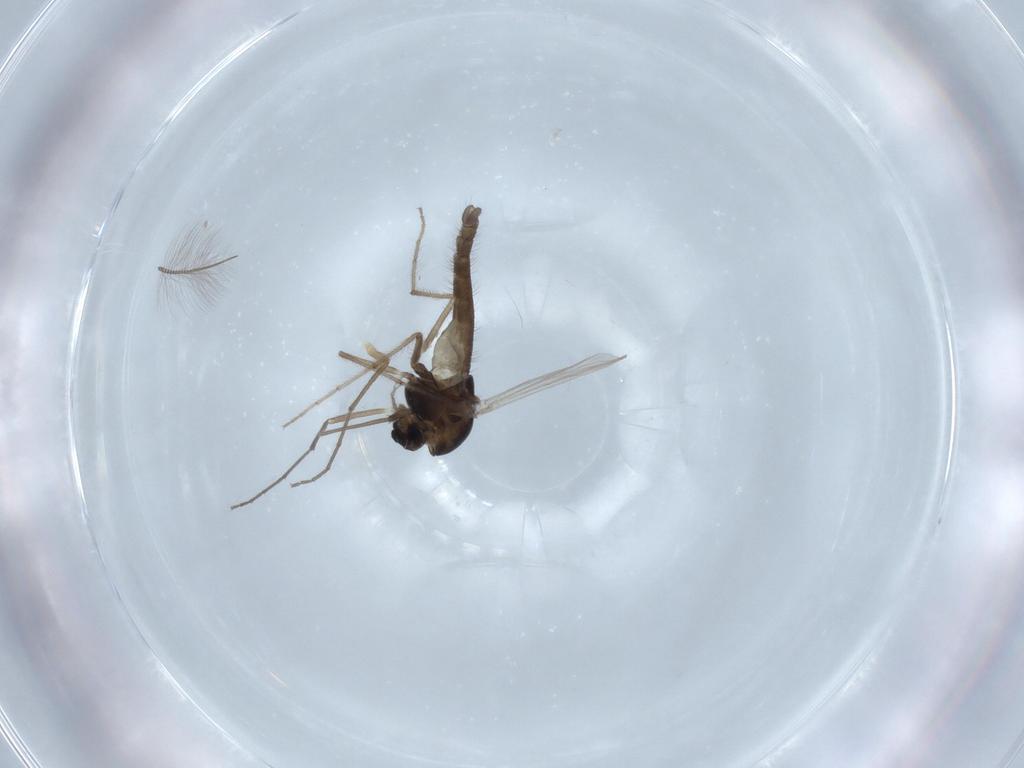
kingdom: Animalia
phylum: Arthropoda
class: Insecta
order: Diptera
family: Chironomidae
